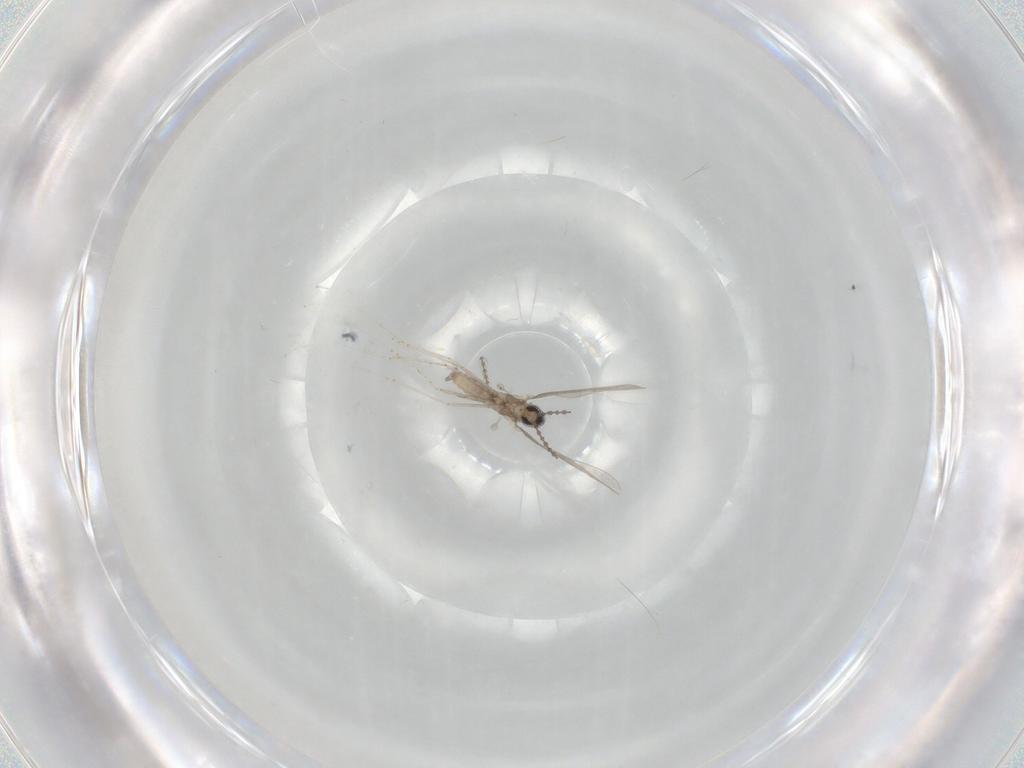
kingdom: Animalia
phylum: Arthropoda
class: Insecta
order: Diptera
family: Cecidomyiidae
